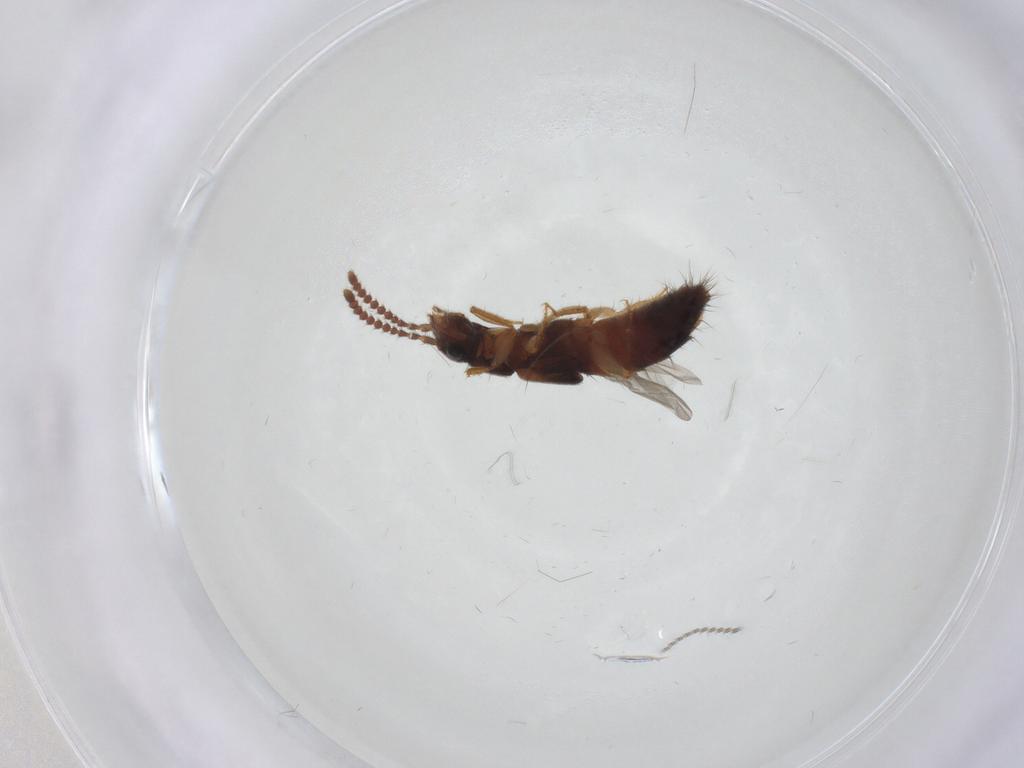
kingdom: Animalia
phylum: Arthropoda
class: Insecta
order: Coleoptera
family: Staphylinidae
